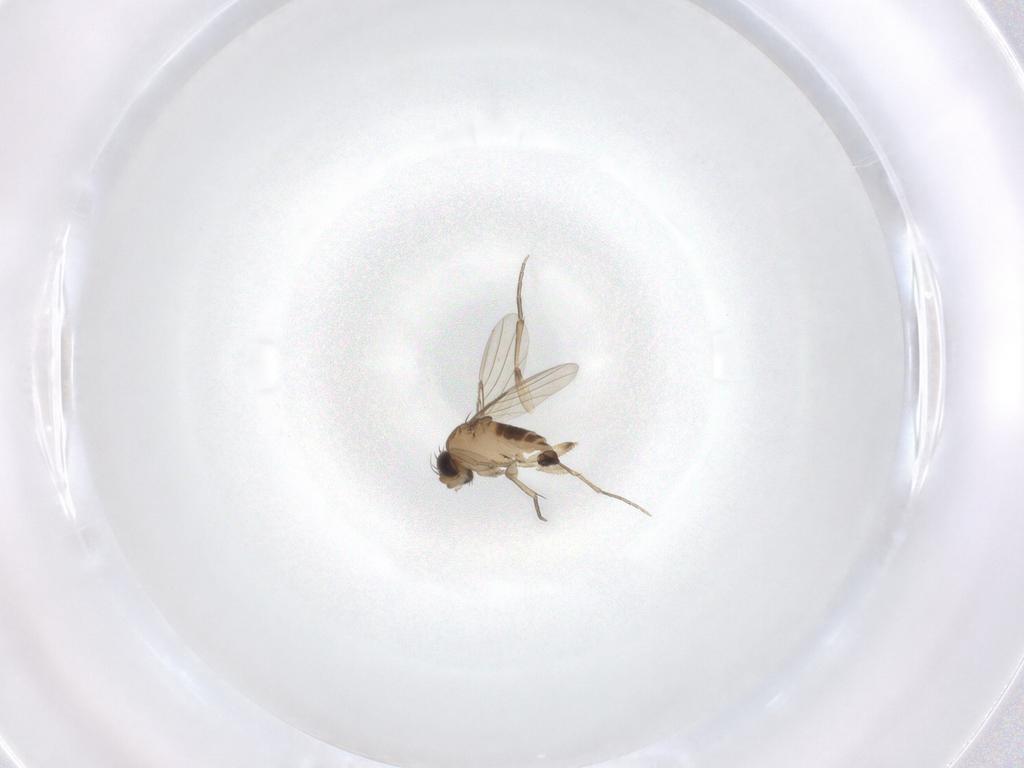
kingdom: Animalia
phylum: Arthropoda
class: Insecta
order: Diptera
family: Phoridae
